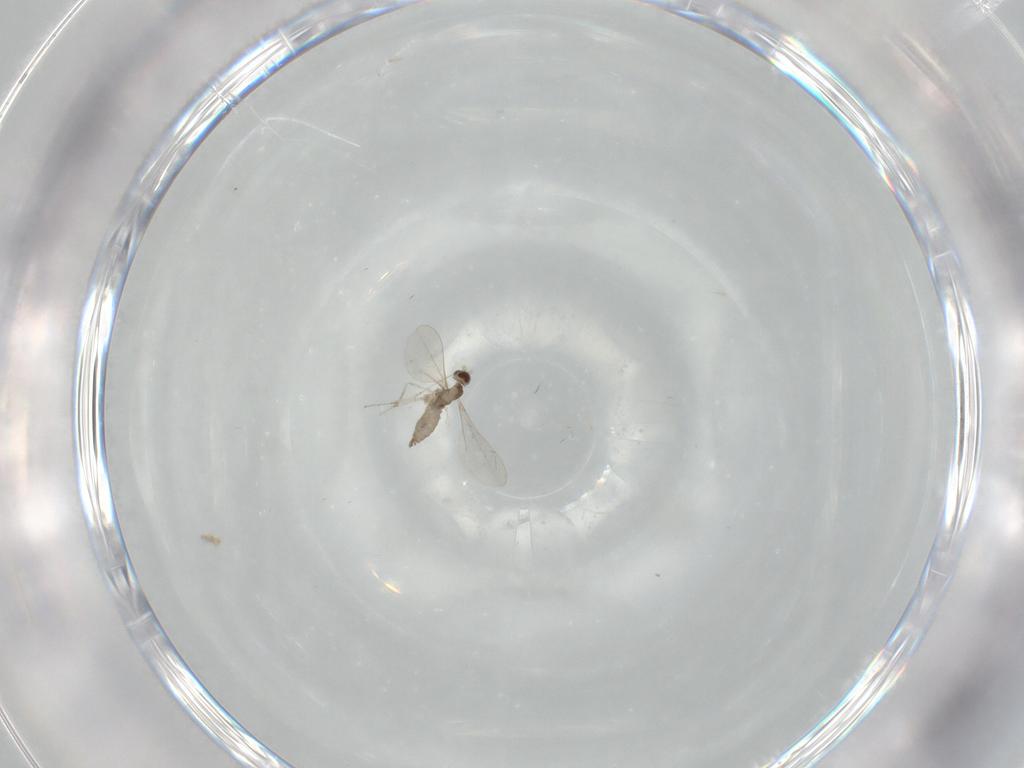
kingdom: Animalia
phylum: Arthropoda
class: Insecta
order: Diptera
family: Cecidomyiidae
